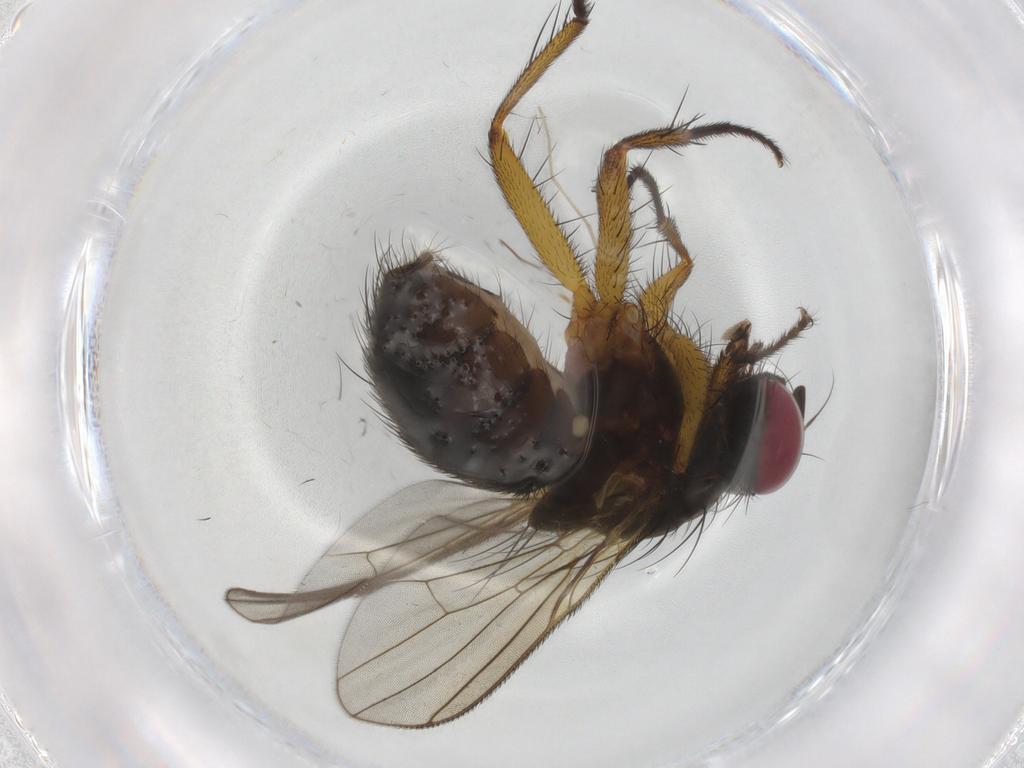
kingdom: Animalia
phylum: Arthropoda
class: Insecta
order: Diptera
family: Muscidae
